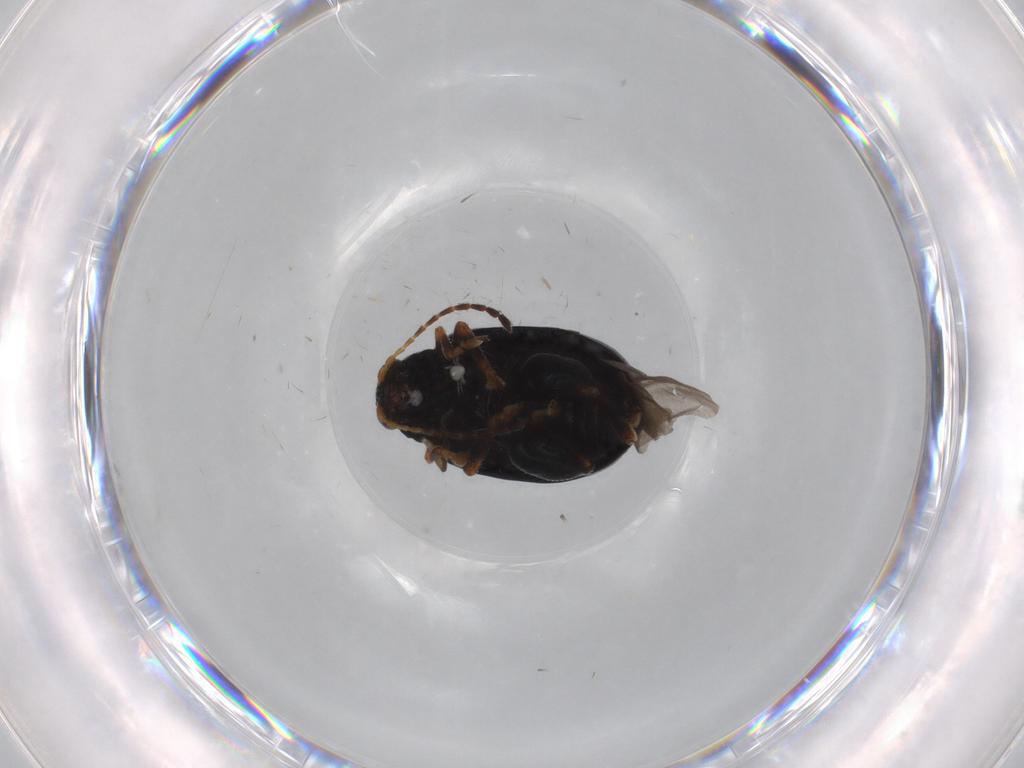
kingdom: Animalia
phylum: Arthropoda
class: Insecta
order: Coleoptera
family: Chrysomelidae
